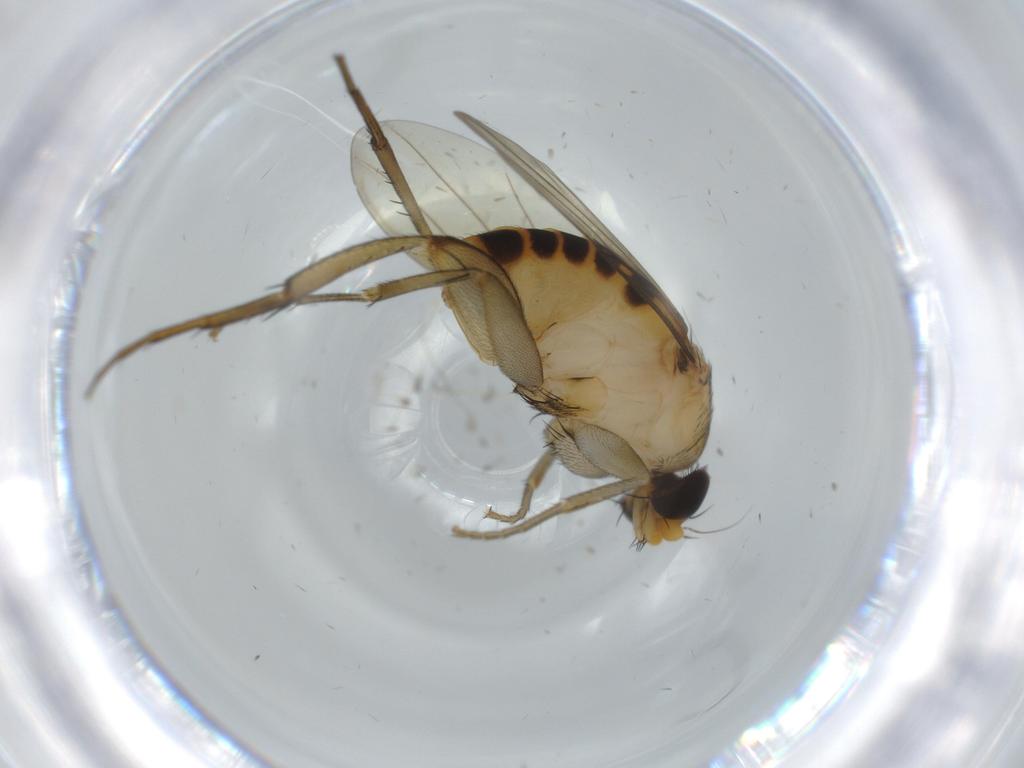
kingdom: Animalia
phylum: Arthropoda
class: Insecta
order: Diptera
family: Phoridae
